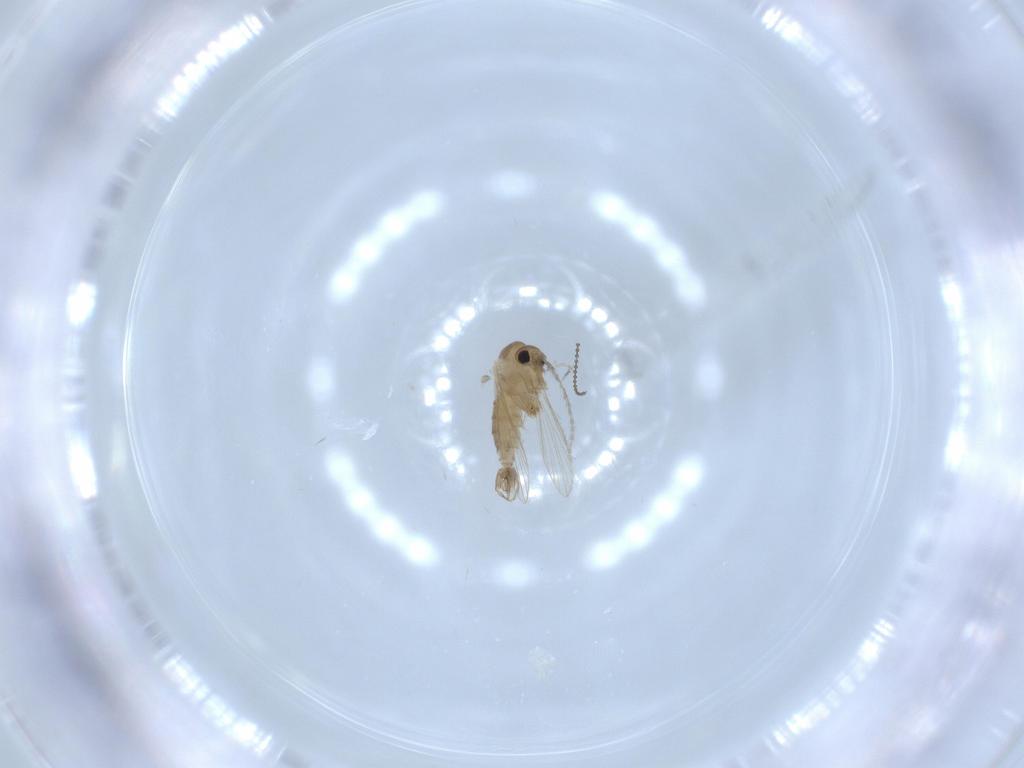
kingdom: Animalia
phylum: Arthropoda
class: Insecta
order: Diptera
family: Psychodidae
